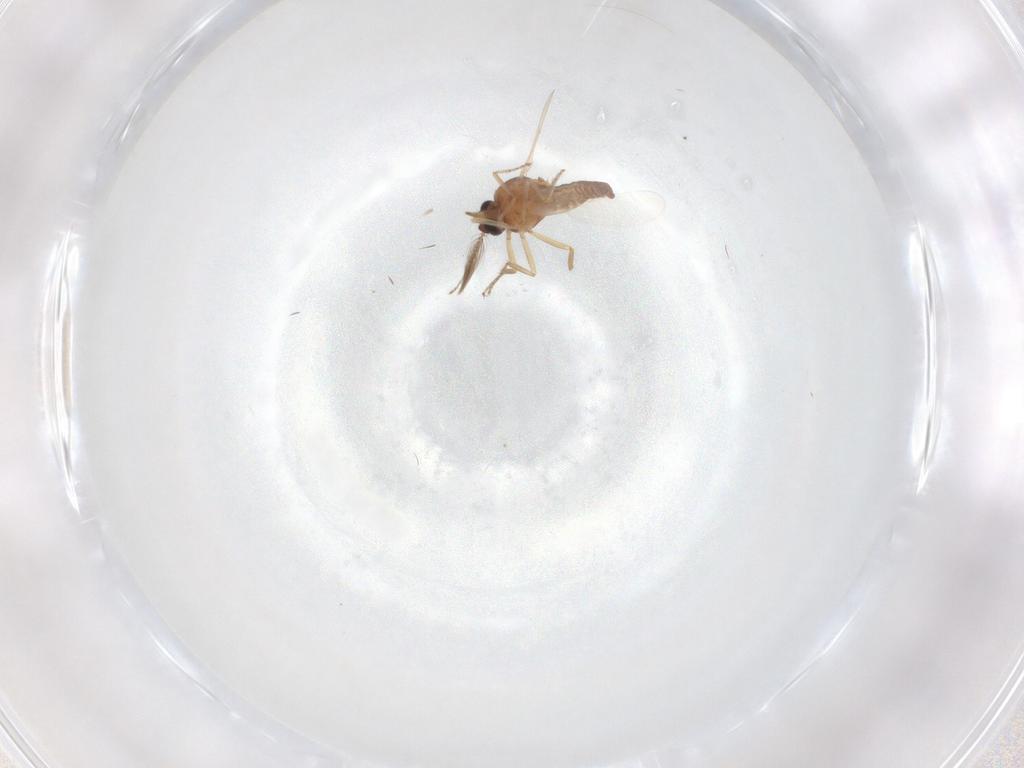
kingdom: Animalia
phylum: Arthropoda
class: Insecta
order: Diptera
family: Ceratopogonidae
